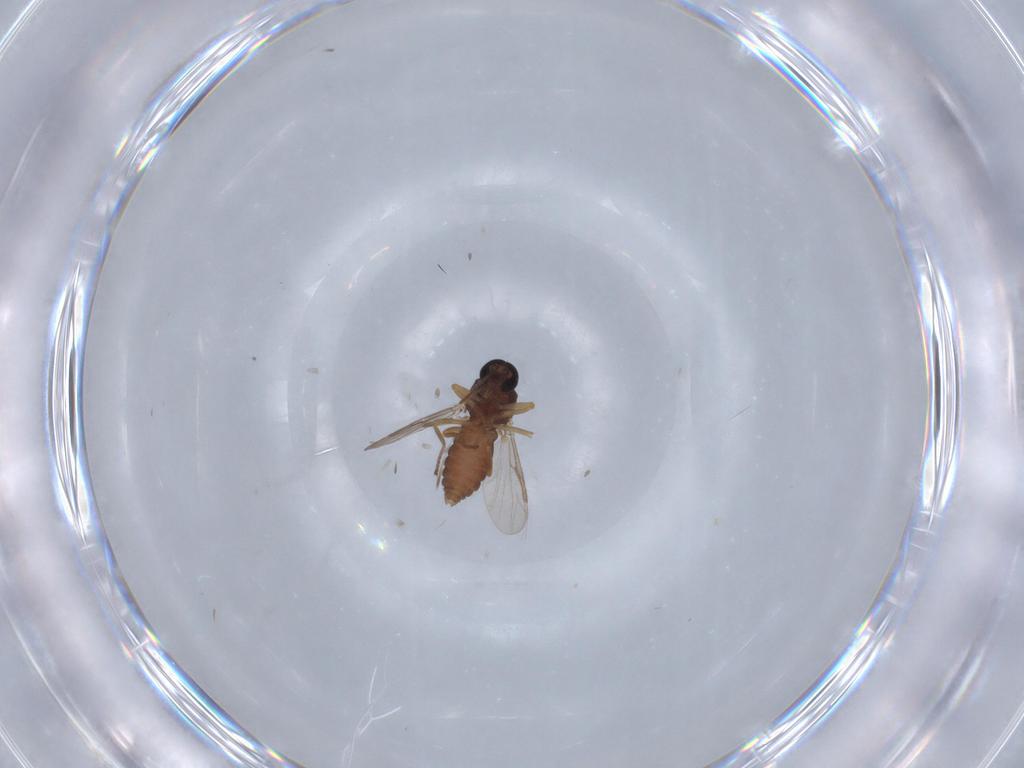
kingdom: Animalia
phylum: Arthropoda
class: Insecta
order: Diptera
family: Ceratopogonidae
